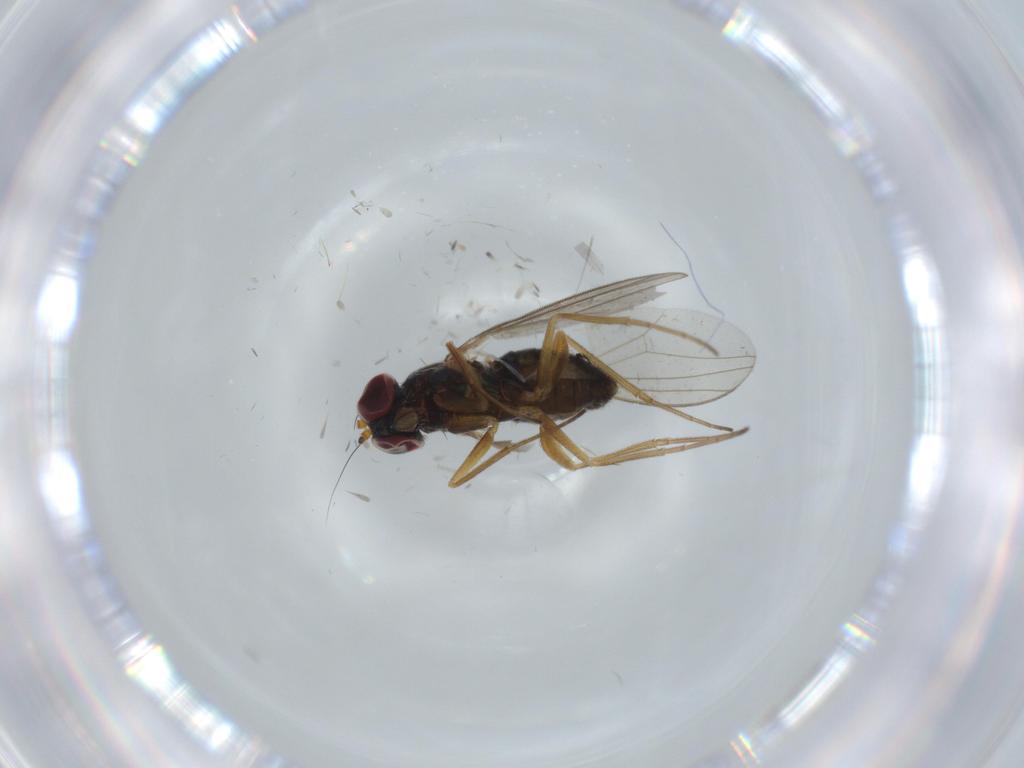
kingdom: Animalia
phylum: Arthropoda
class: Insecta
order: Diptera
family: Sciaridae
